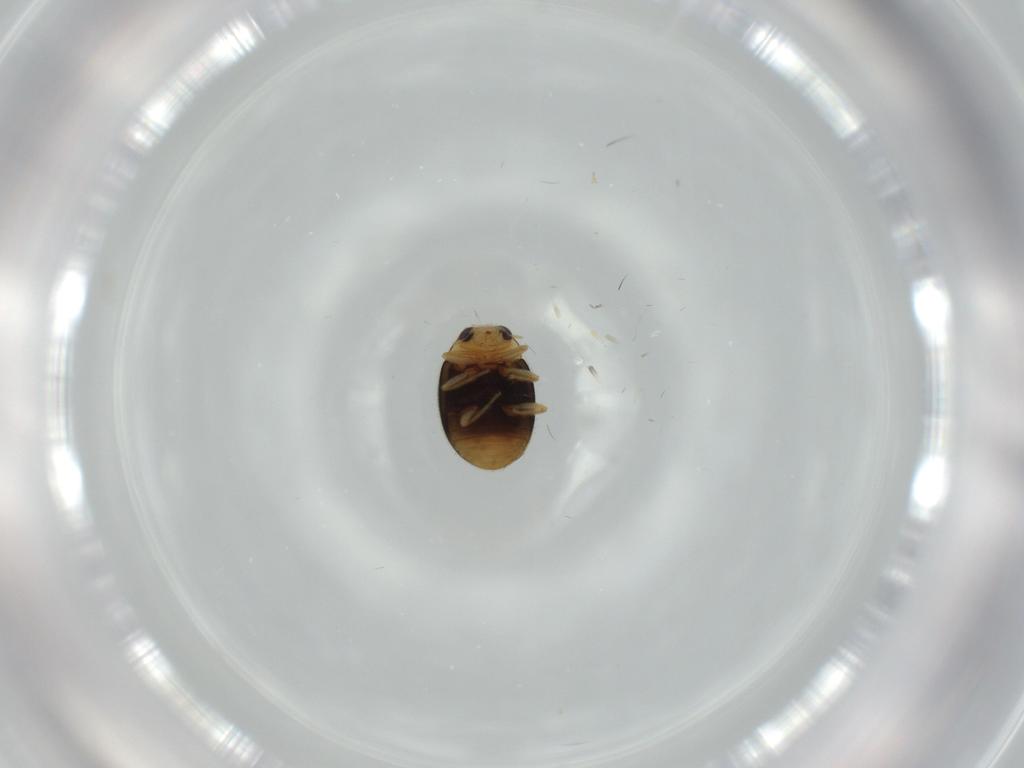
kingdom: Animalia
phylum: Arthropoda
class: Insecta
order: Coleoptera
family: Coccinellidae
